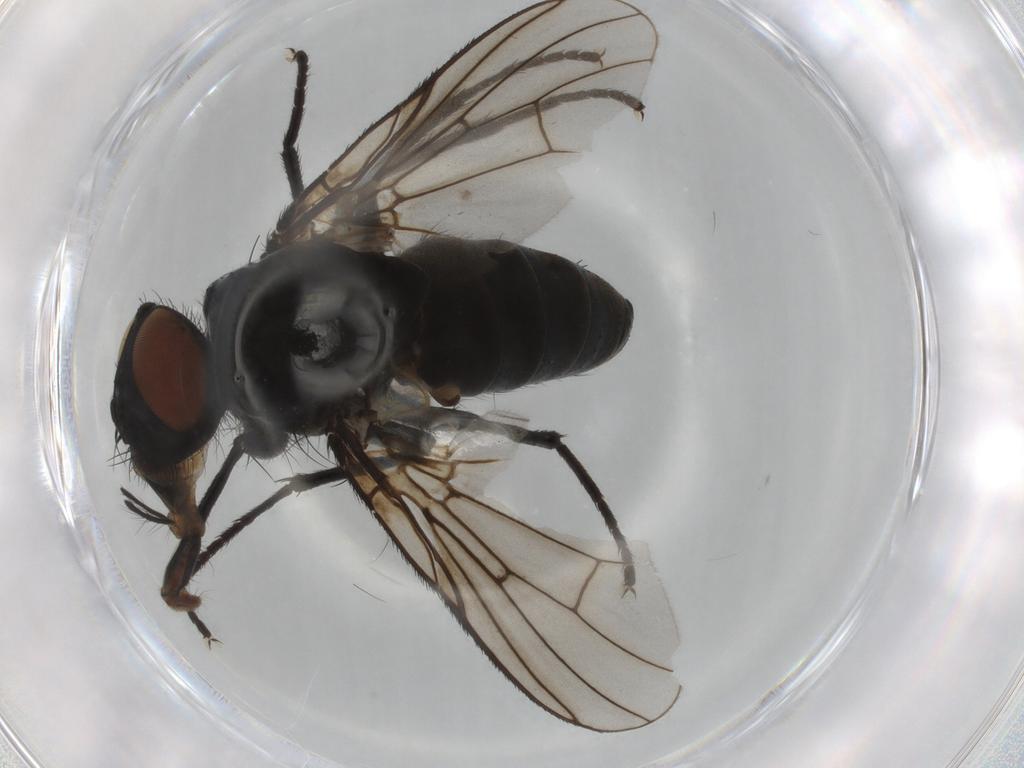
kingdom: Animalia
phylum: Arthropoda
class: Insecta
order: Diptera
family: Muscidae
